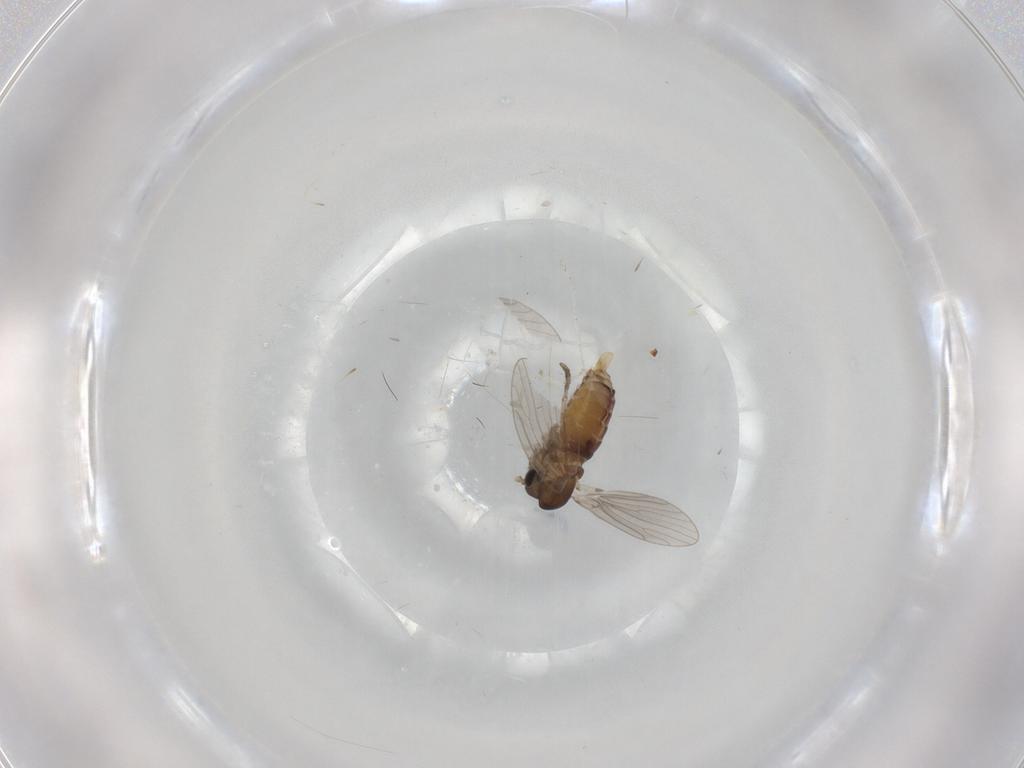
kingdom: Animalia
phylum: Arthropoda
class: Insecta
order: Diptera
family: Psychodidae
